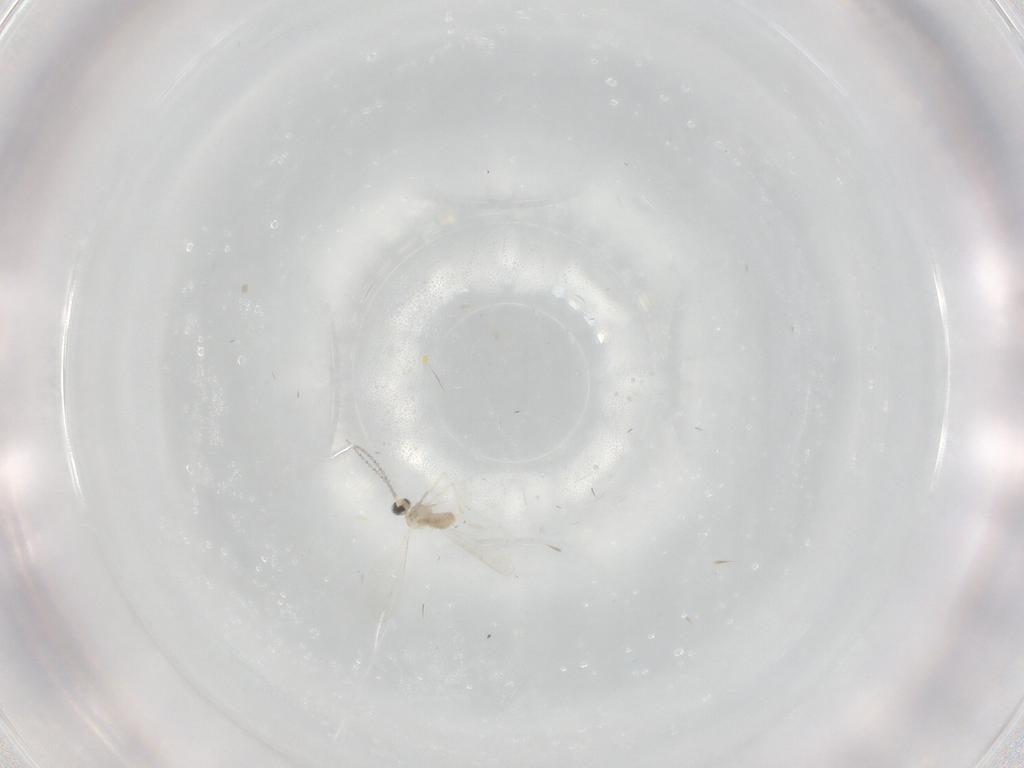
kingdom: Animalia
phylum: Arthropoda
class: Insecta
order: Diptera
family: Cecidomyiidae
